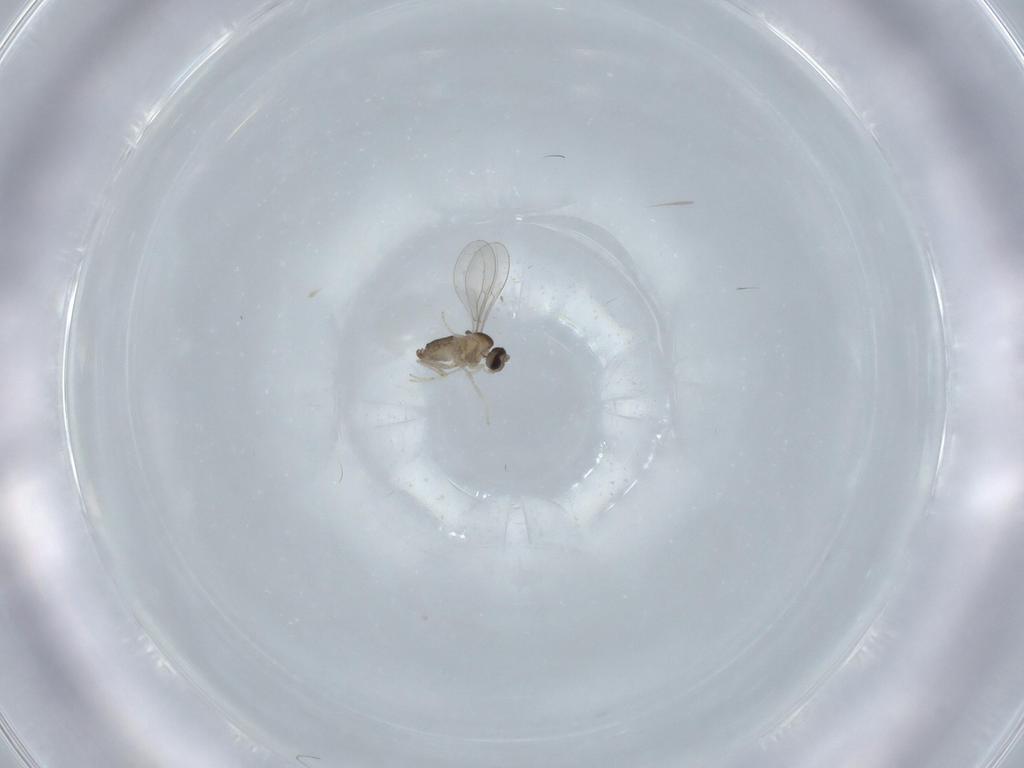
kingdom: Animalia
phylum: Arthropoda
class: Insecta
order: Diptera
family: Cecidomyiidae
